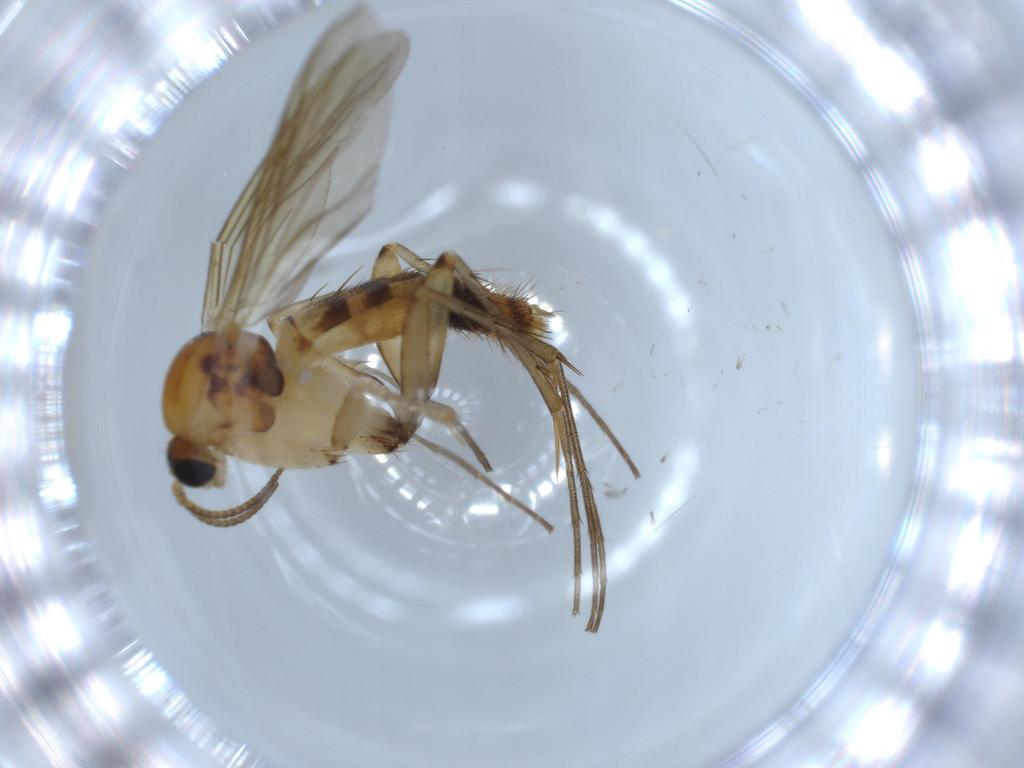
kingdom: Animalia
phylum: Arthropoda
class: Insecta
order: Diptera
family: Mycetophilidae
